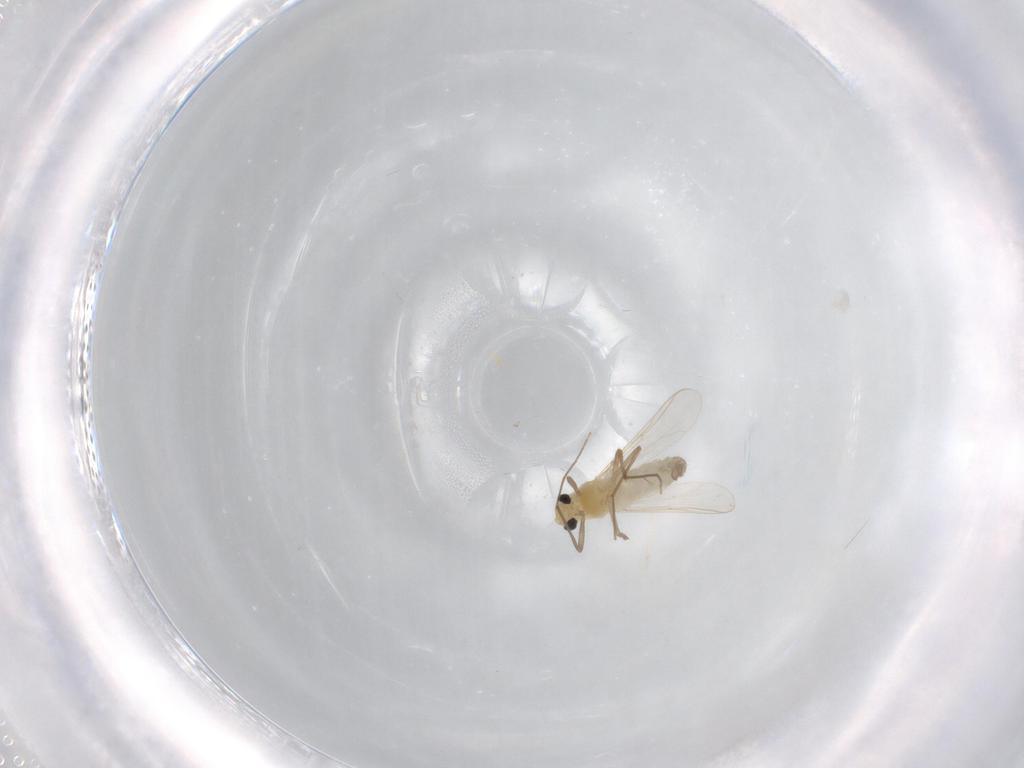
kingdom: Animalia
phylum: Arthropoda
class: Insecta
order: Diptera
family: Chironomidae
